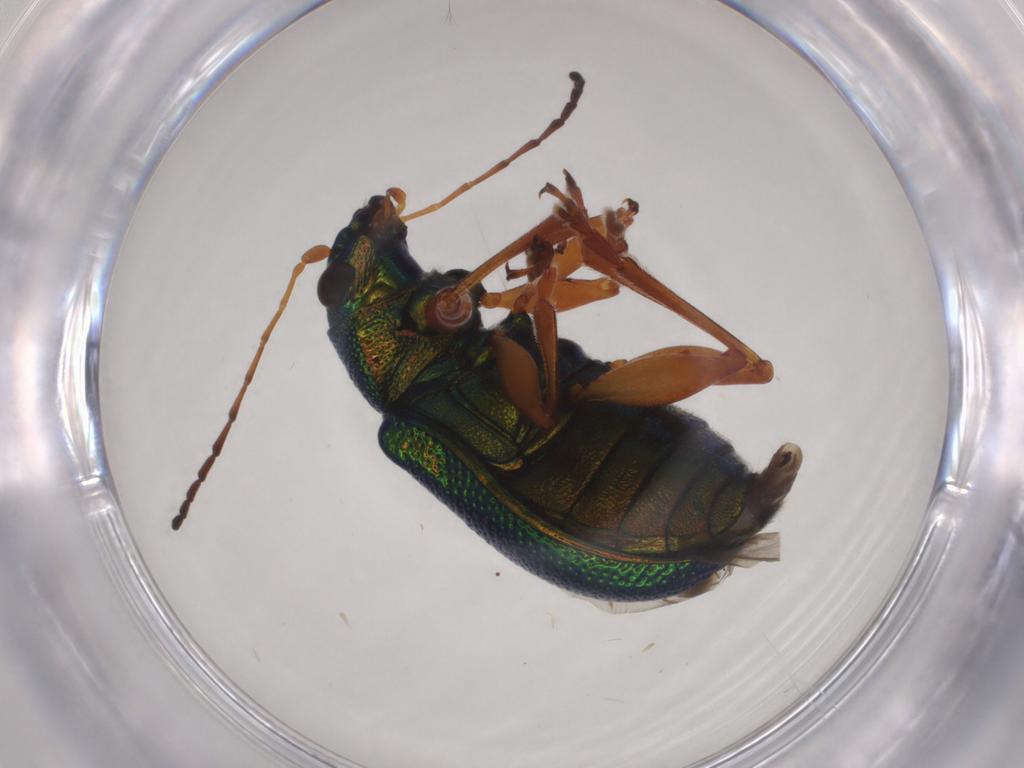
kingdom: Animalia
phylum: Arthropoda
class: Insecta
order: Coleoptera
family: Chrysomelidae
